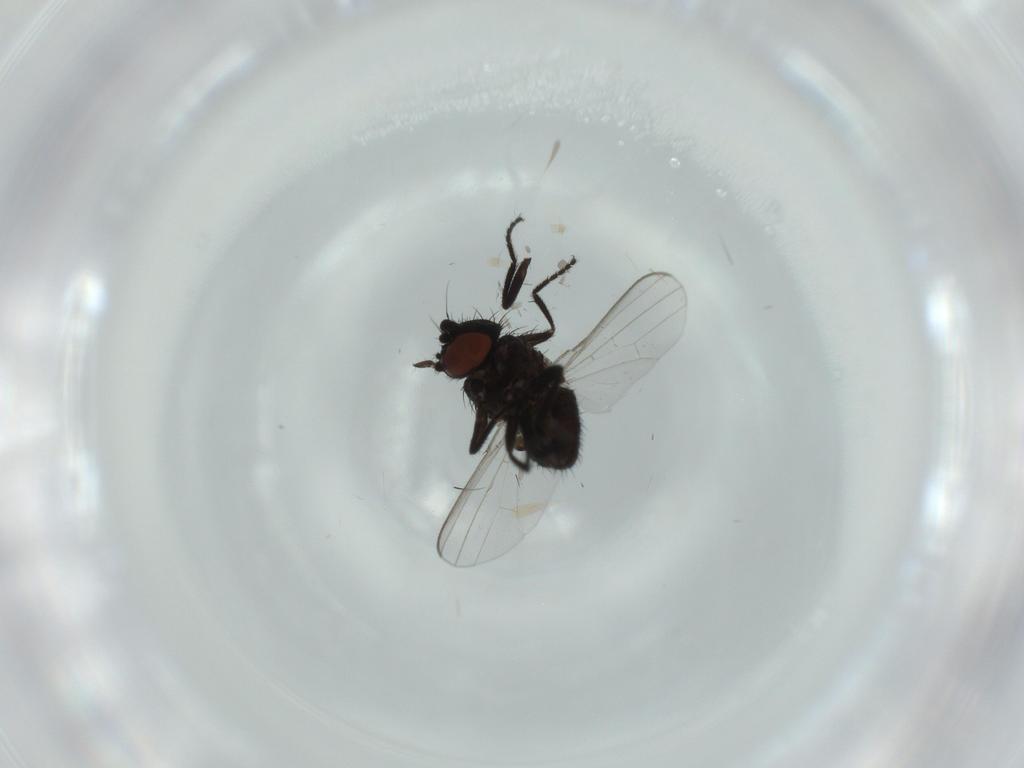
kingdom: Animalia
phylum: Arthropoda
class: Insecta
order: Diptera
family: Milichiidae
